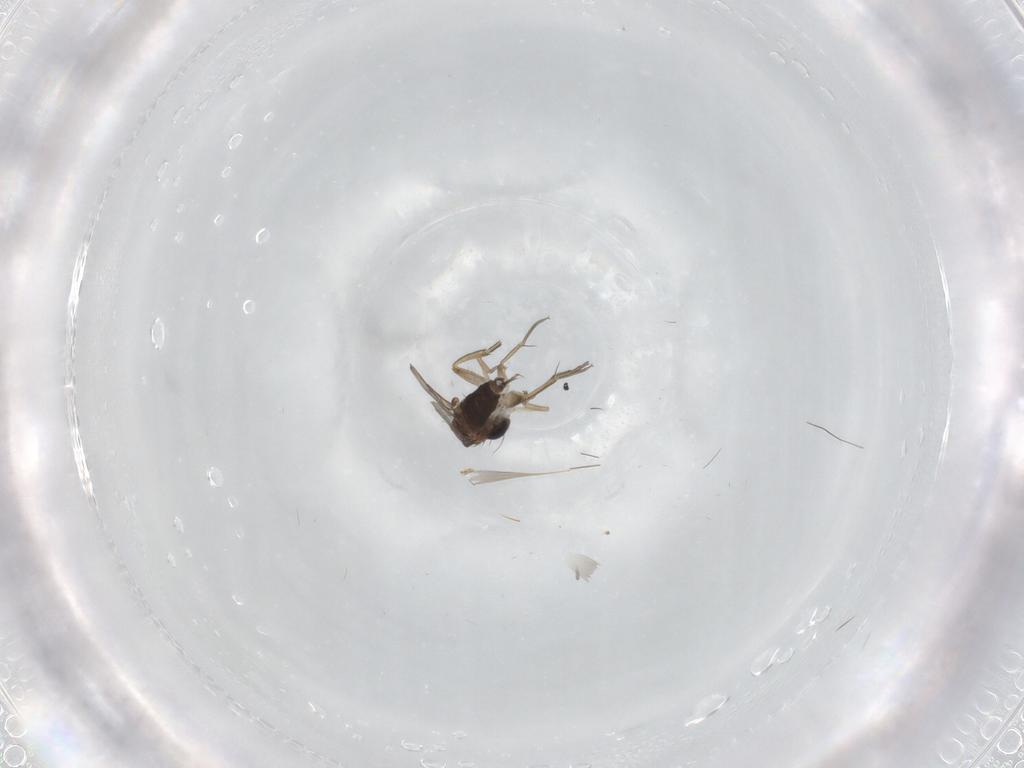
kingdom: Animalia
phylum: Arthropoda
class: Insecta
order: Diptera
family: Phoridae
